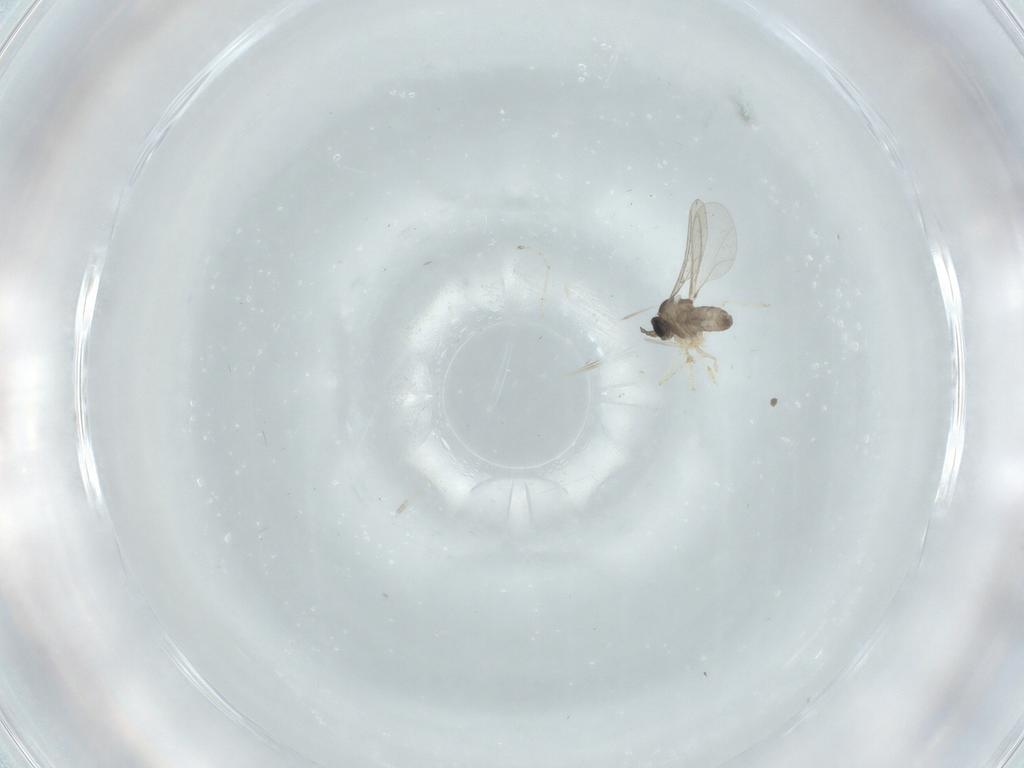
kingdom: Animalia
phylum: Arthropoda
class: Insecta
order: Diptera
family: Cecidomyiidae
